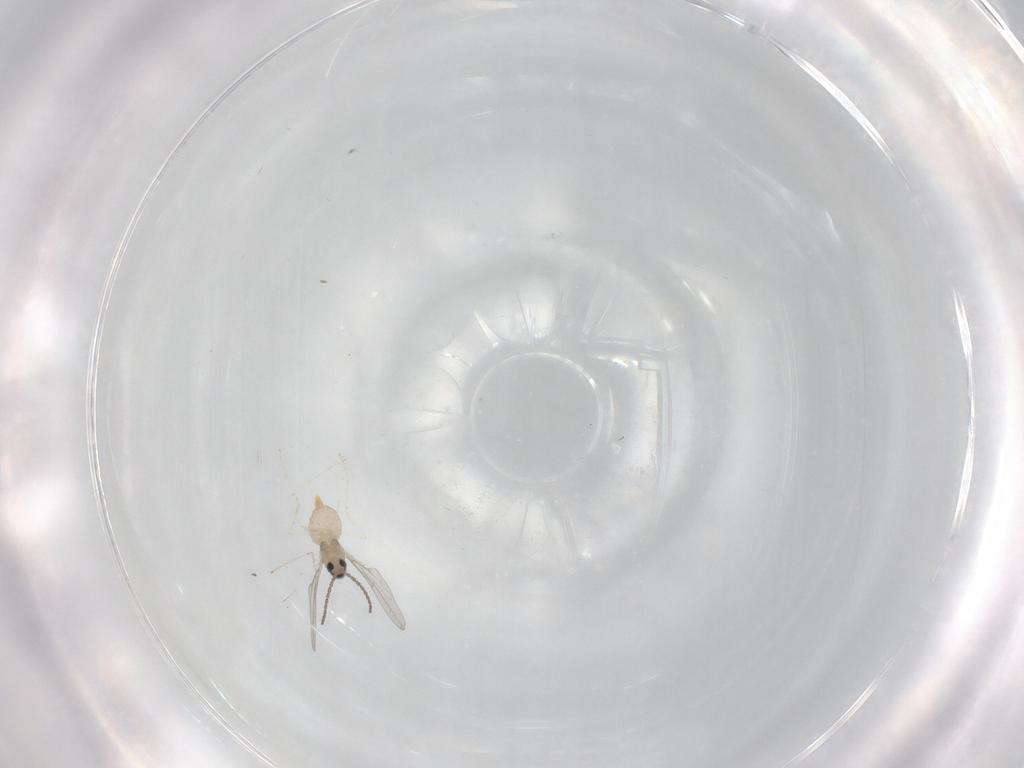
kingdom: Animalia
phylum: Arthropoda
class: Insecta
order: Diptera
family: Cecidomyiidae
